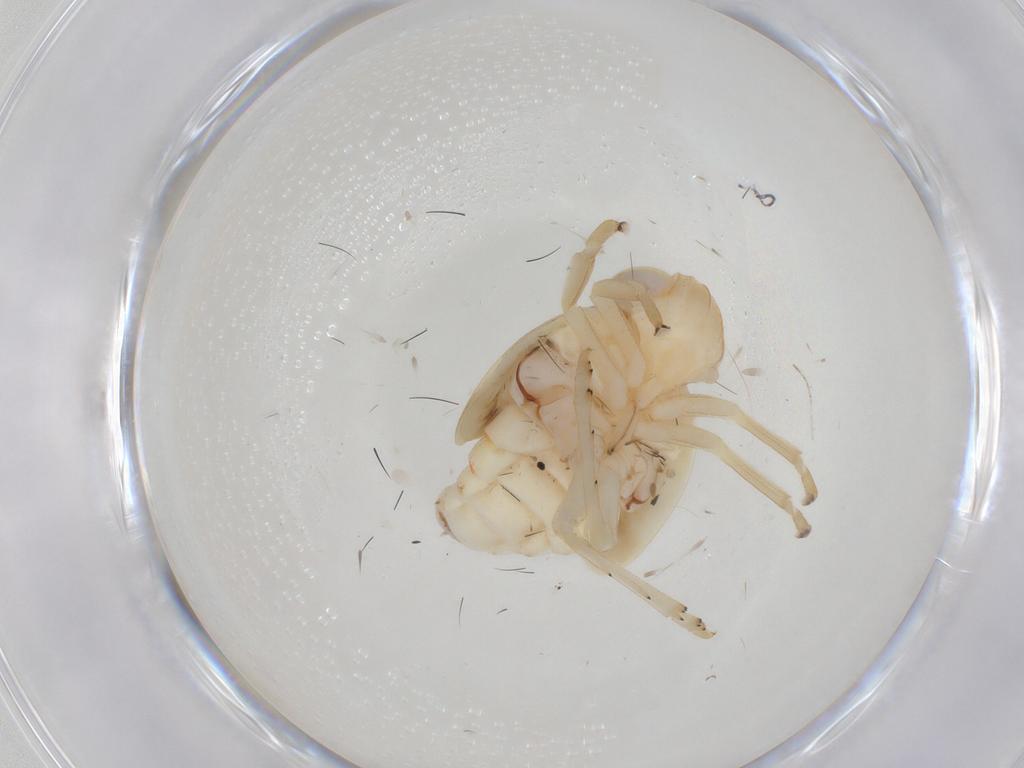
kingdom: Animalia
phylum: Arthropoda
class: Insecta
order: Hemiptera
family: Nogodinidae
